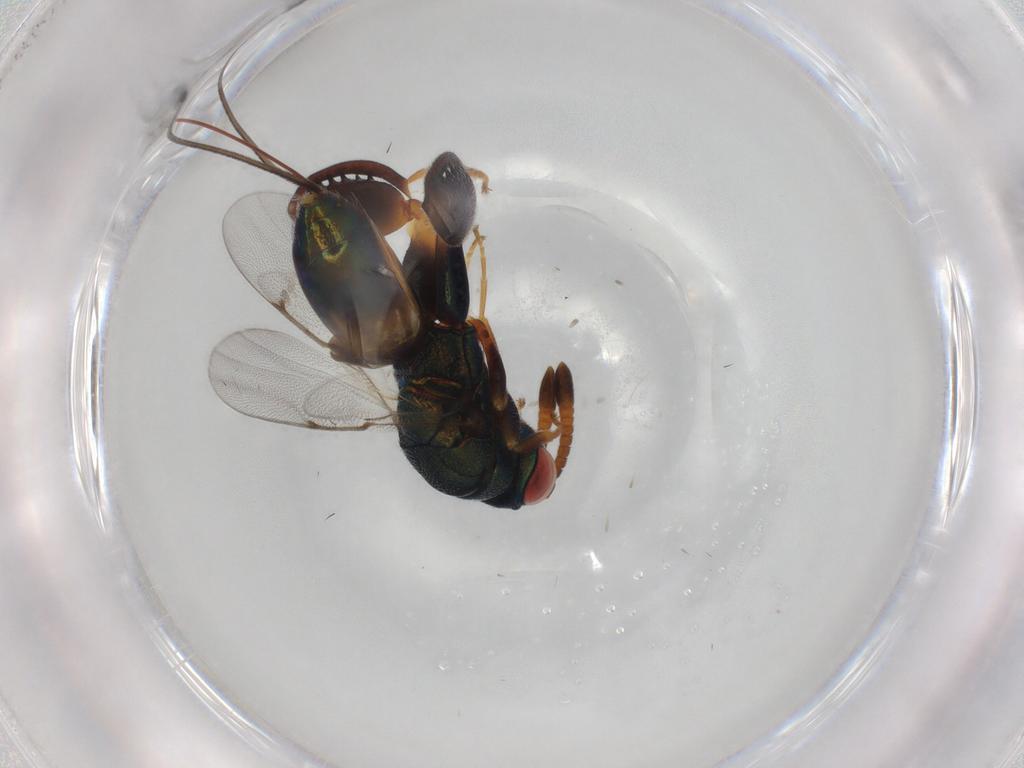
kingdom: Animalia
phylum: Arthropoda
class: Insecta
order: Hymenoptera
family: Torymidae
